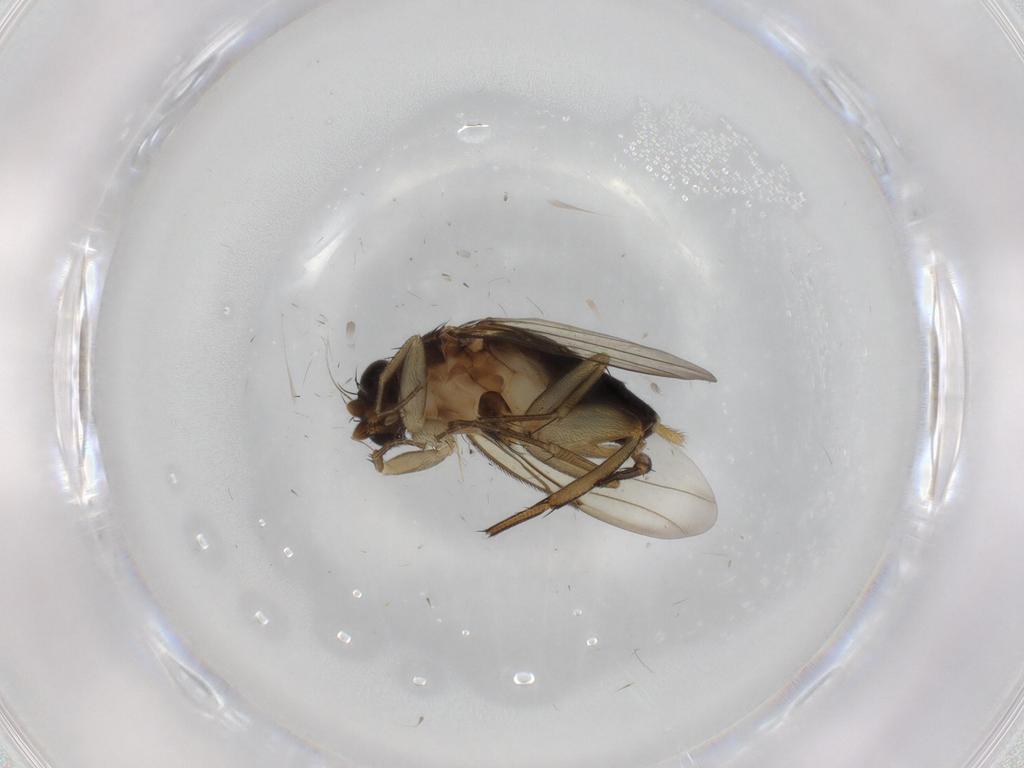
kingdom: Animalia
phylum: Arthropoda
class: Insecta
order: Diptera
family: Phoridae
